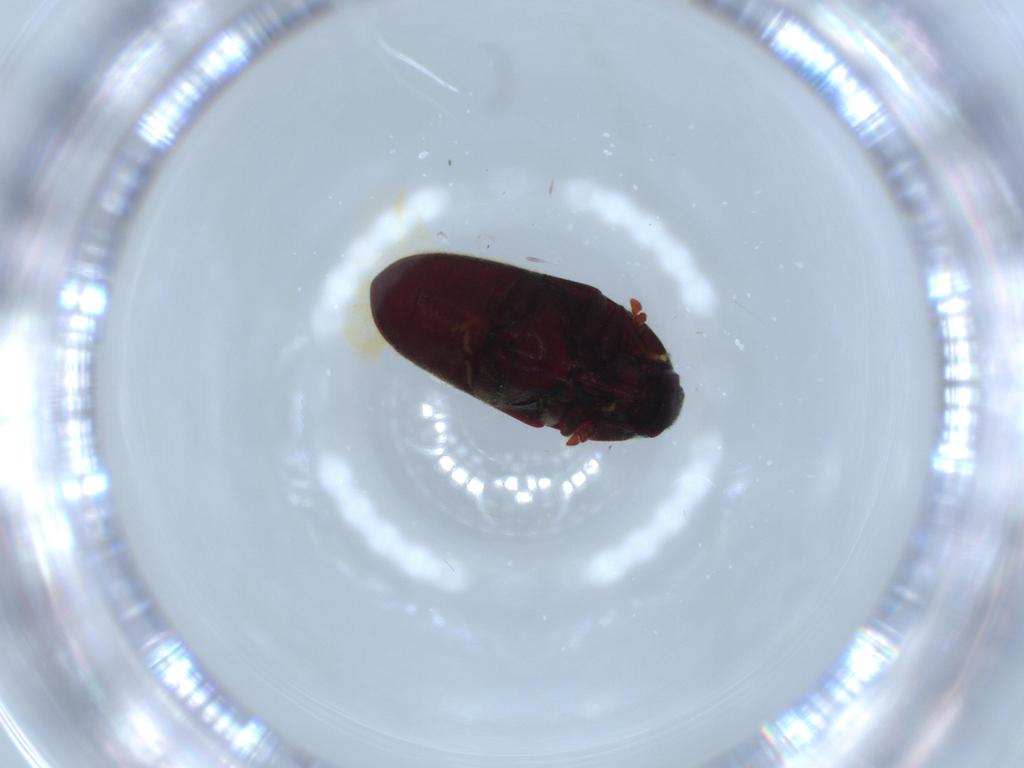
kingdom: Animalia
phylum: Arthropoda
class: Insecta
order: Coleoptera
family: Throscidae
